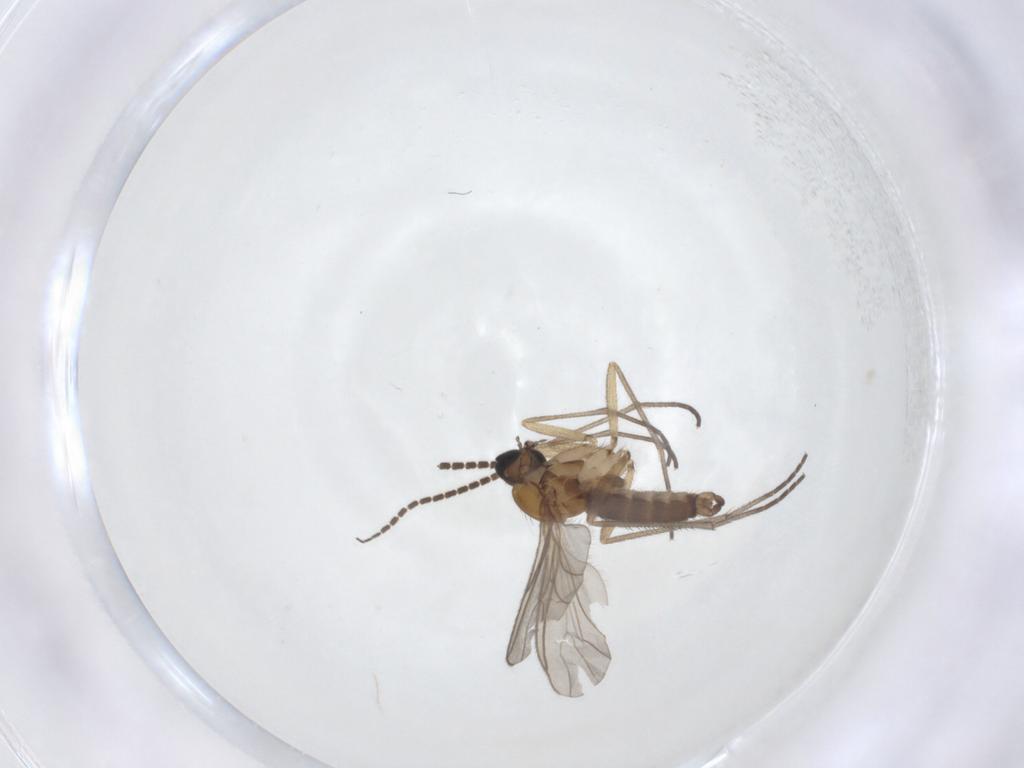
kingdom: Animalia
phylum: Arthropoda
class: Insecta
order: Diptera
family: Sciaridae
